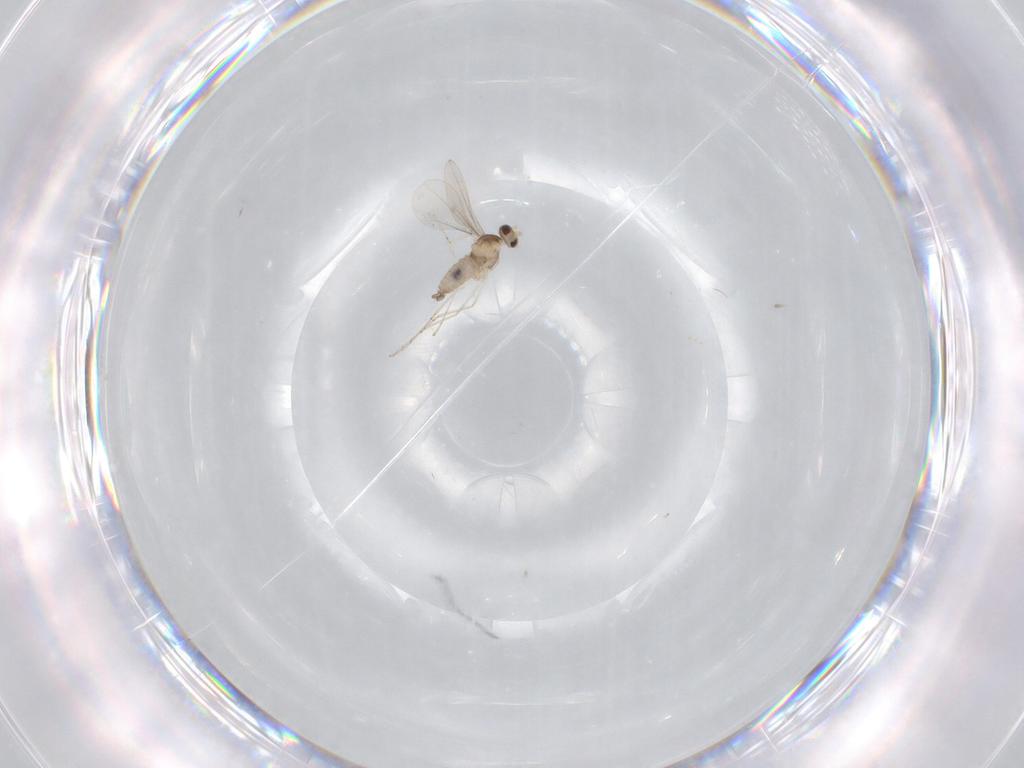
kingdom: Animalia
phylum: Arthropoda
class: Insecta
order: Diptera
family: Cecidomyiidae
